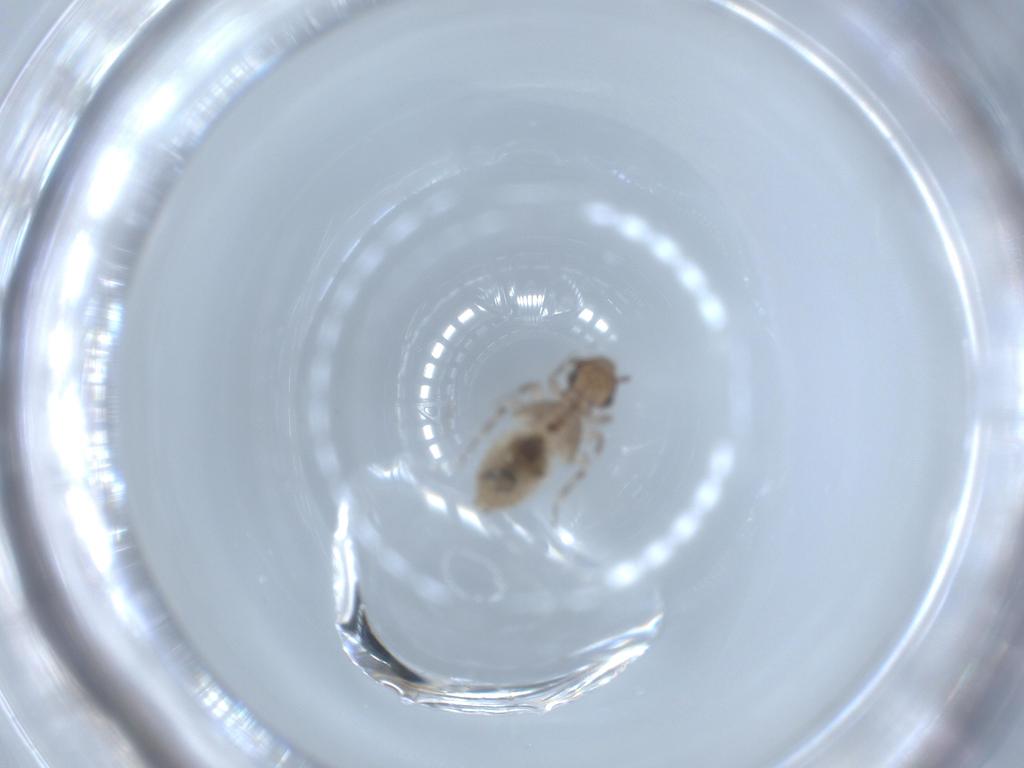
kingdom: Animalia
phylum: Arthropoda
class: Insecta
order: Psocodea
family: Lepidopsocidae
